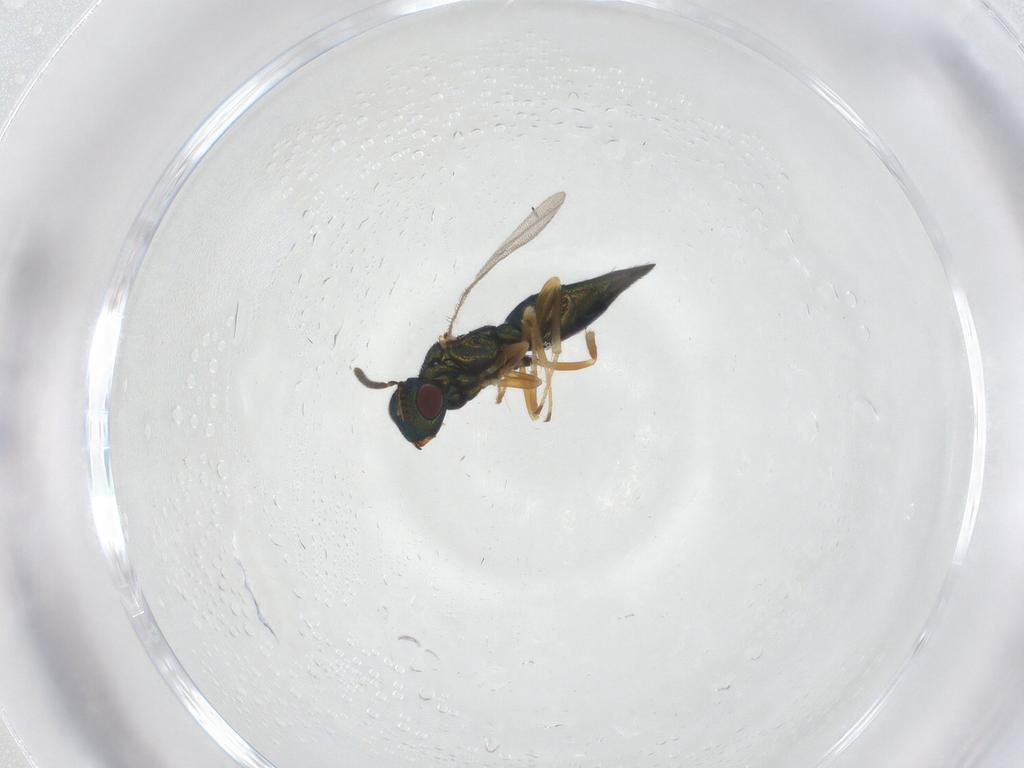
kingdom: Animalia
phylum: Arthropoda
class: Insecta
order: Hymenoptera
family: Pteromalidae
